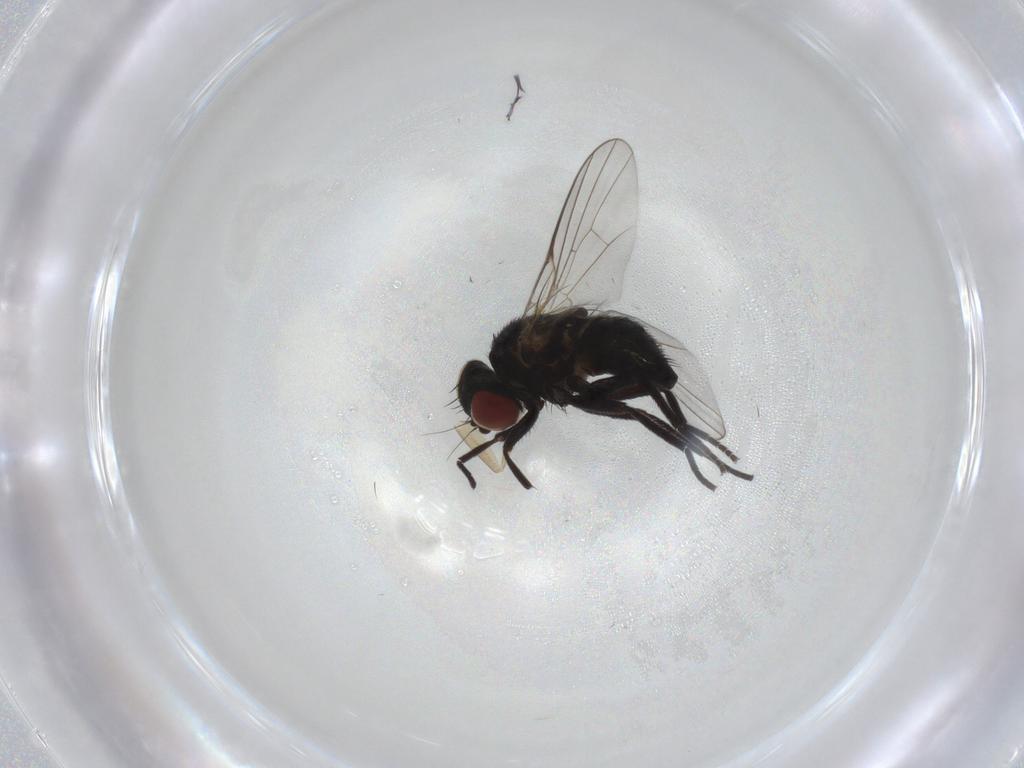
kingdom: Animalia
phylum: Arthropoda
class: Insecta
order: Diptera
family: Agromyzidae
